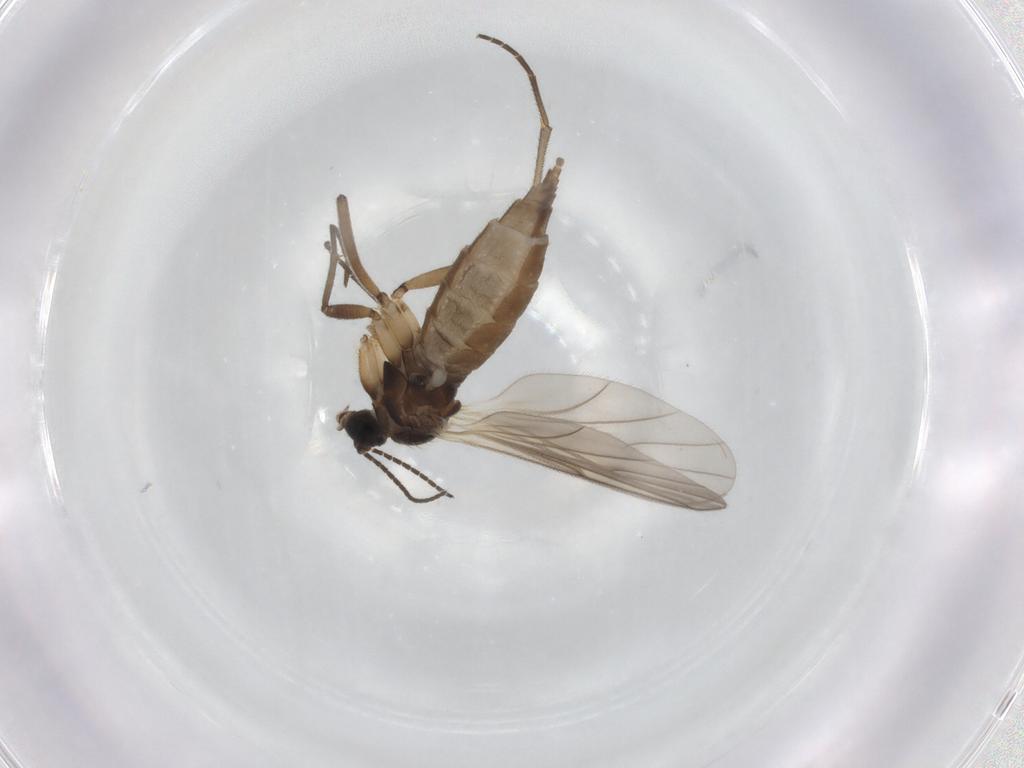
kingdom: Animalia
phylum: Arthropoda
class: Insecta
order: Diptera
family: Sciaridae
